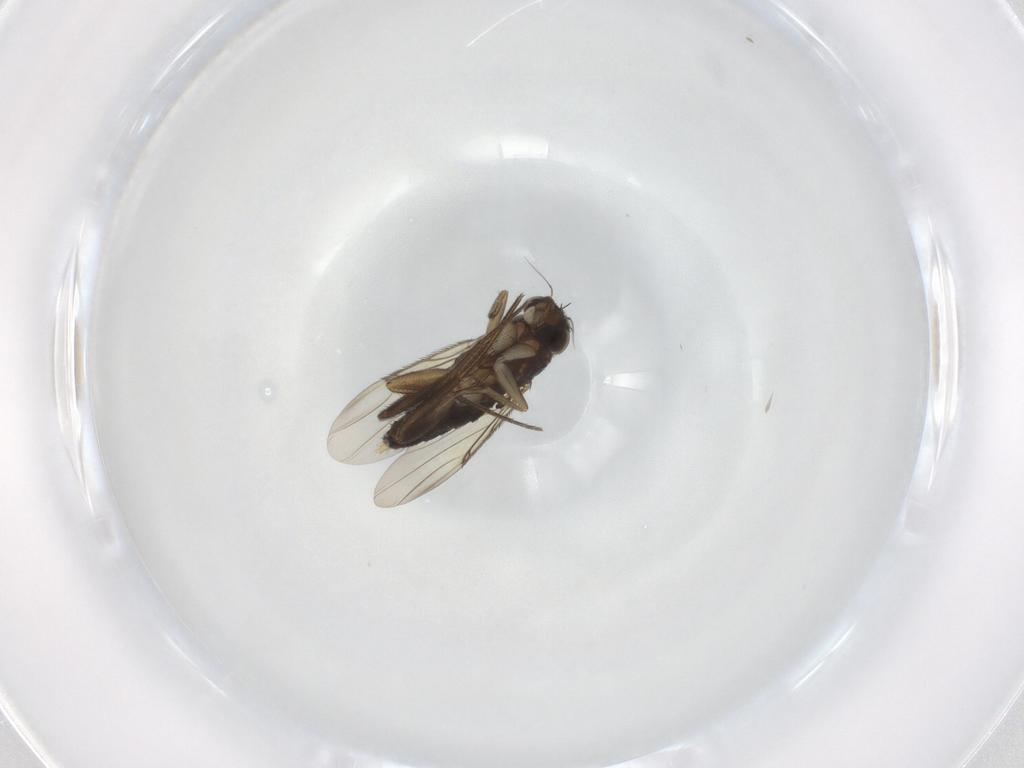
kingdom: Animalia
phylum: Arthropoda
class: Insecta
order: Diptera
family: Phoridae
